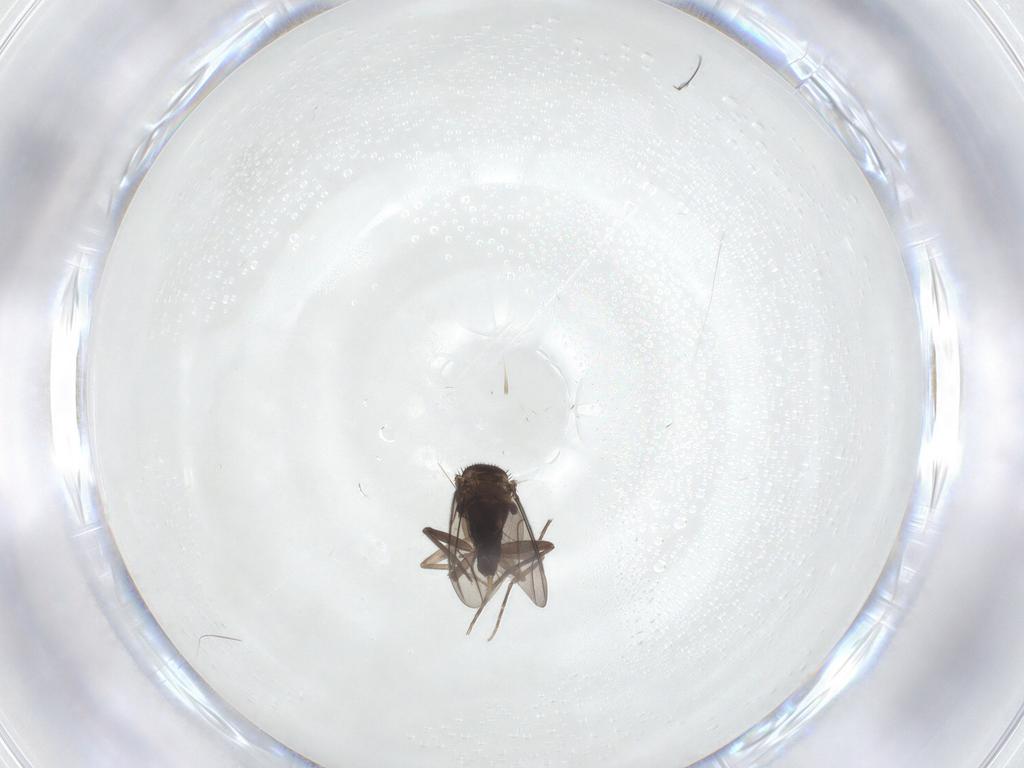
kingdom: Animalia
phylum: Arthropoda
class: Insecta
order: Diptera
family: Phoridae
